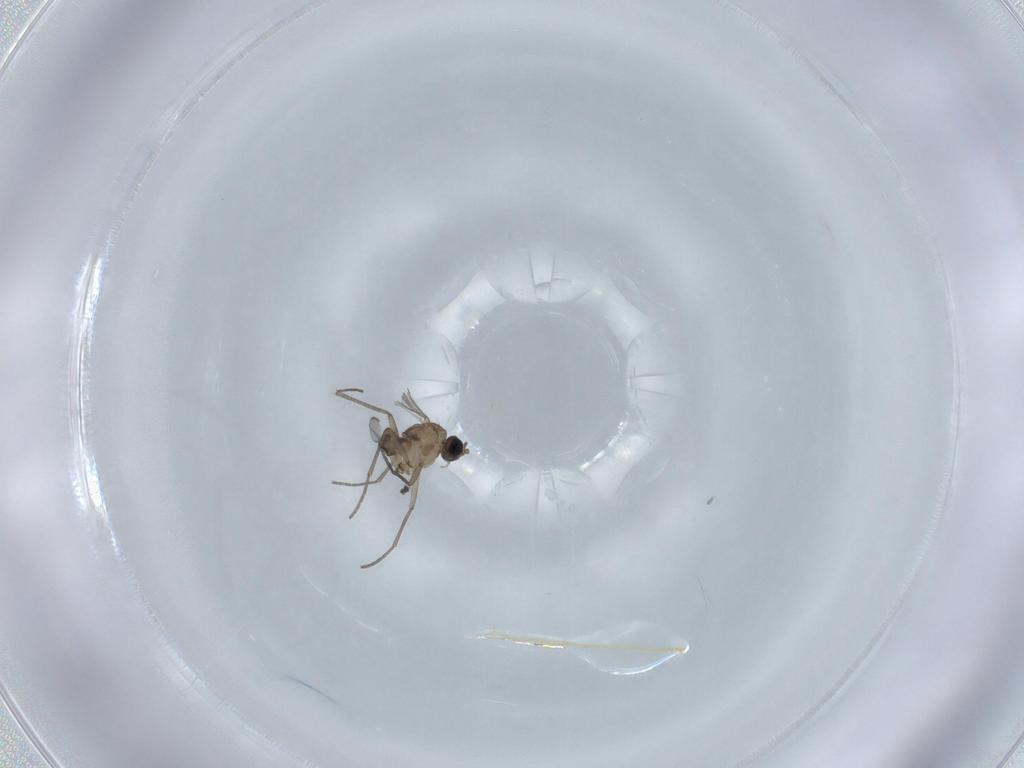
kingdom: Animalia
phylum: Arthropoda
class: Insecta
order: Diptera
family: Sciaridae
